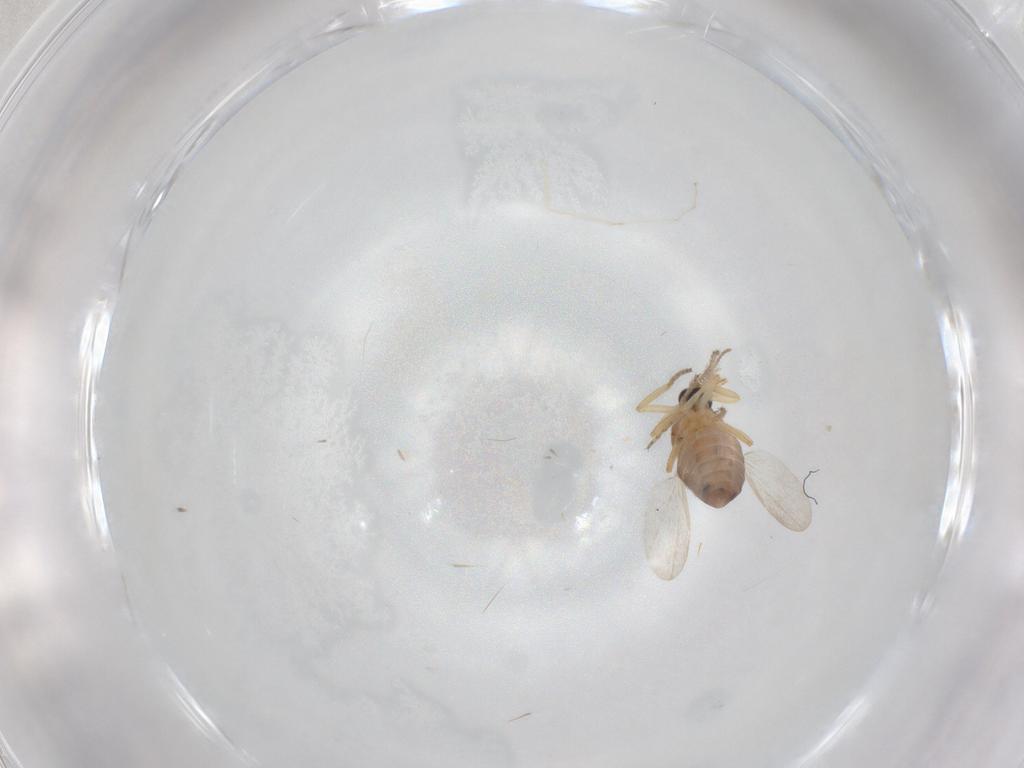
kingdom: Animalia
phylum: Arthropoda
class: Insecta
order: Diptera
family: Ceratopogonidae
